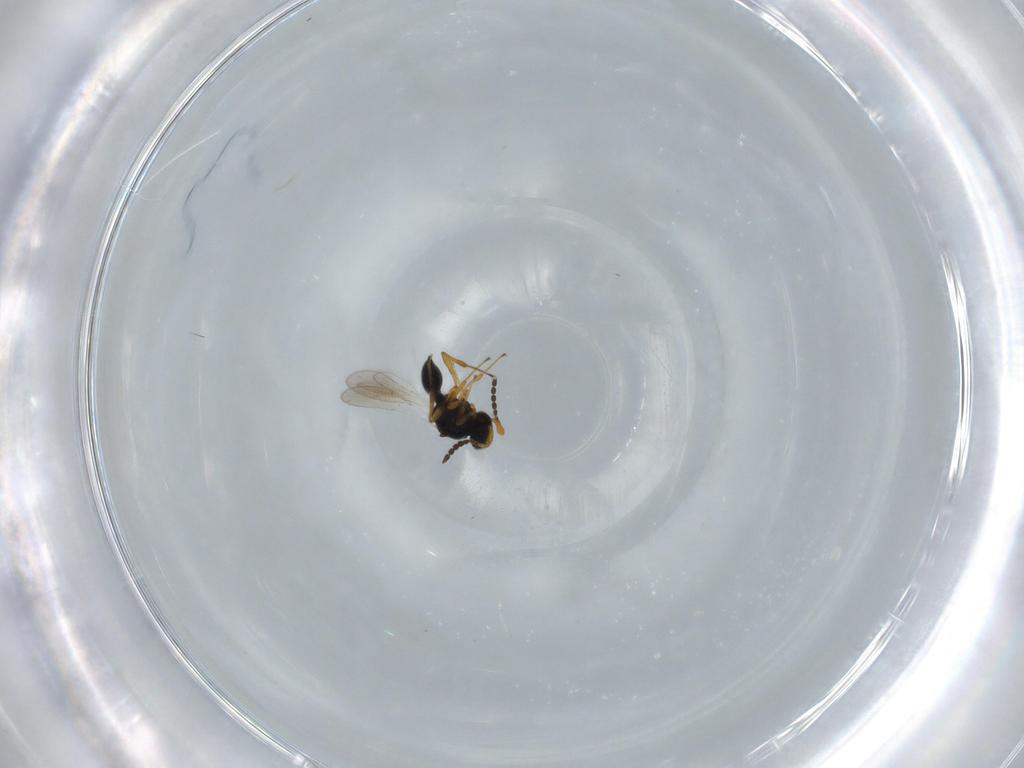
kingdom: Animalia
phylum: Arthropoda
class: Insecta
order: Hymenoptera
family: Platygastridae
